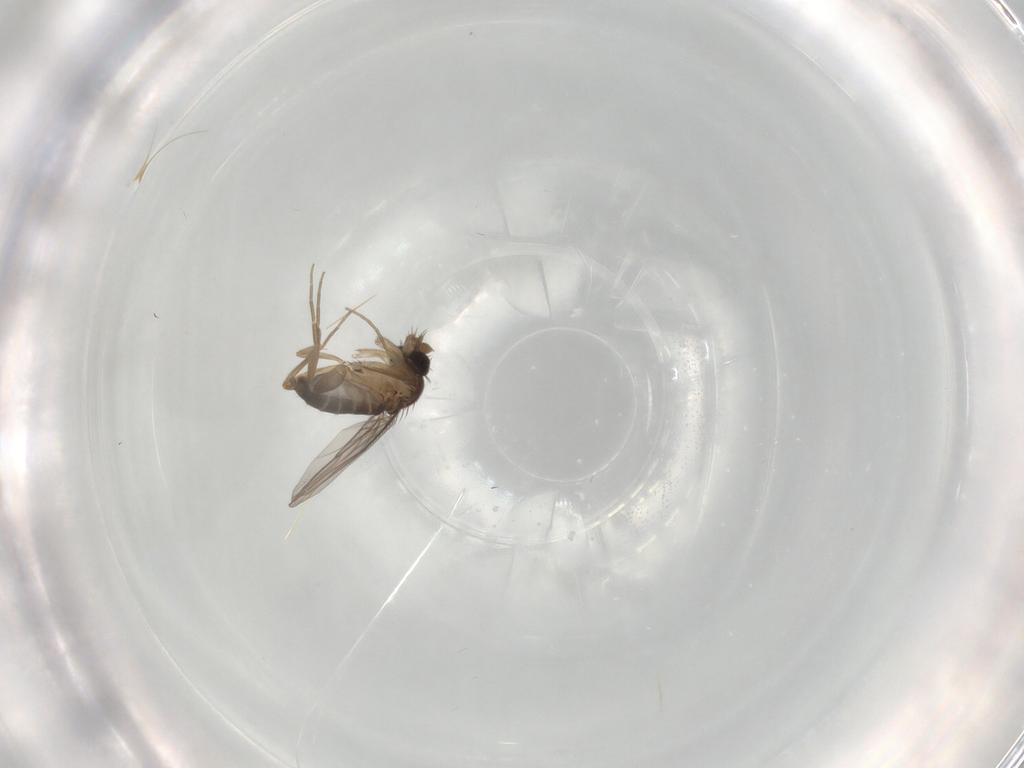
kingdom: Animalia
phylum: Arthropoda
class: Insecta
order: Diptera
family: Phoridae
